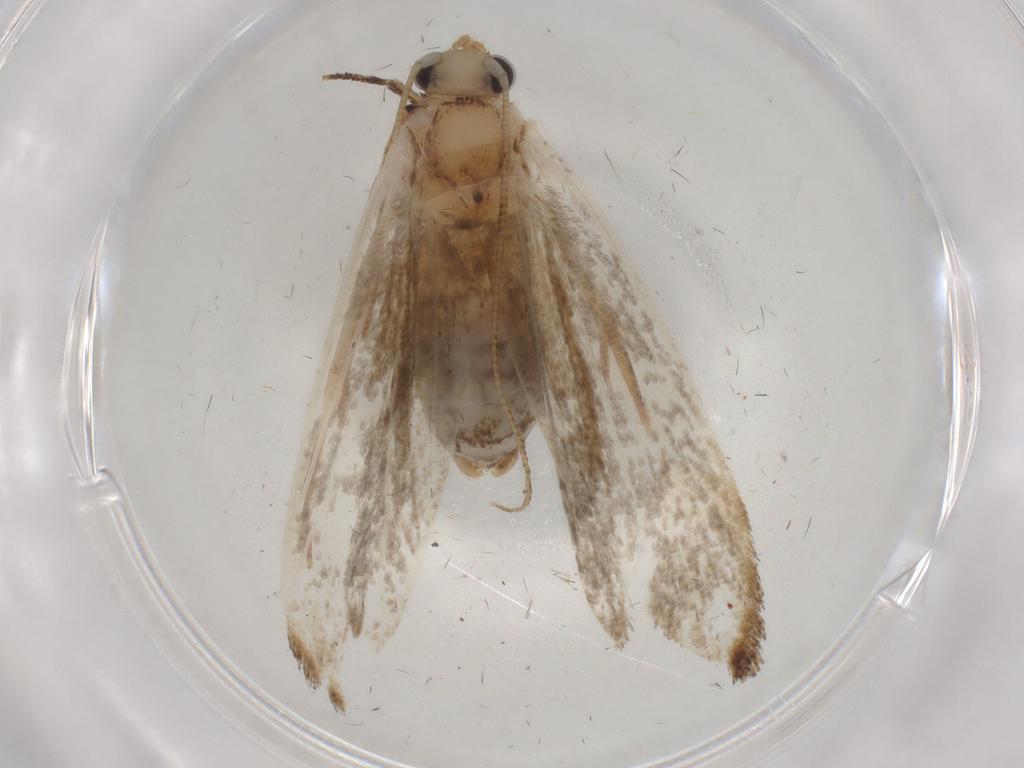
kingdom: Animalia
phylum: Arthropoda
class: Insecta
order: Lepidoptera
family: Tineidae
